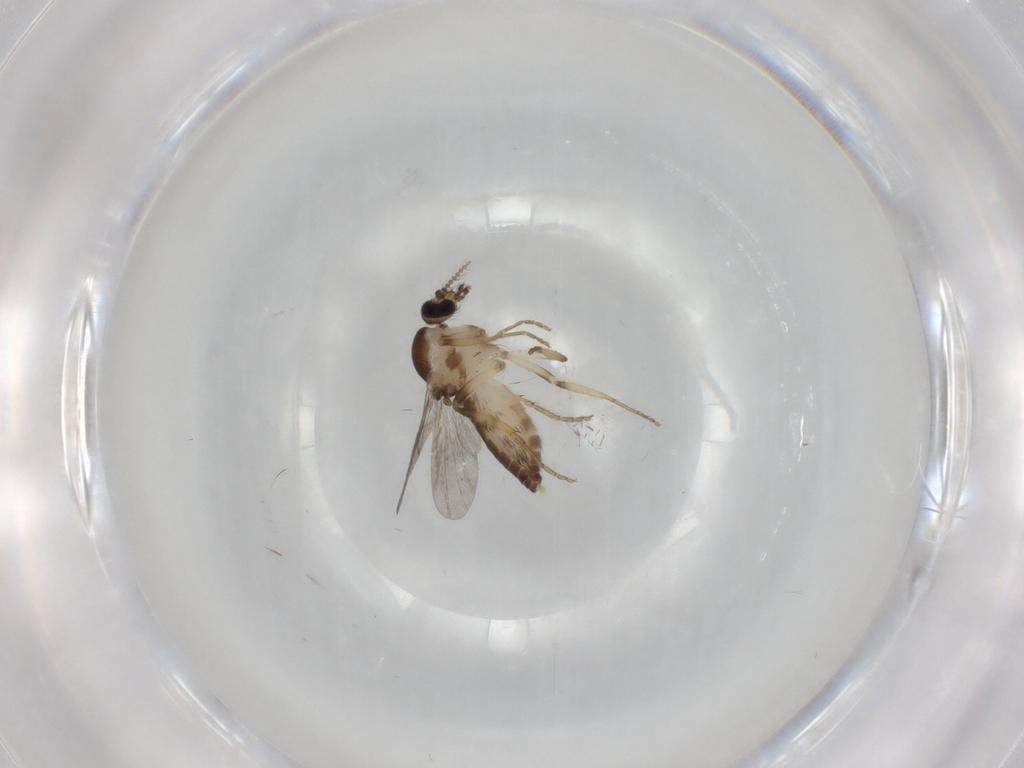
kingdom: Animalia
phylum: Arthropoda
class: Insecta
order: Diptera
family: Ceratopogonidae
